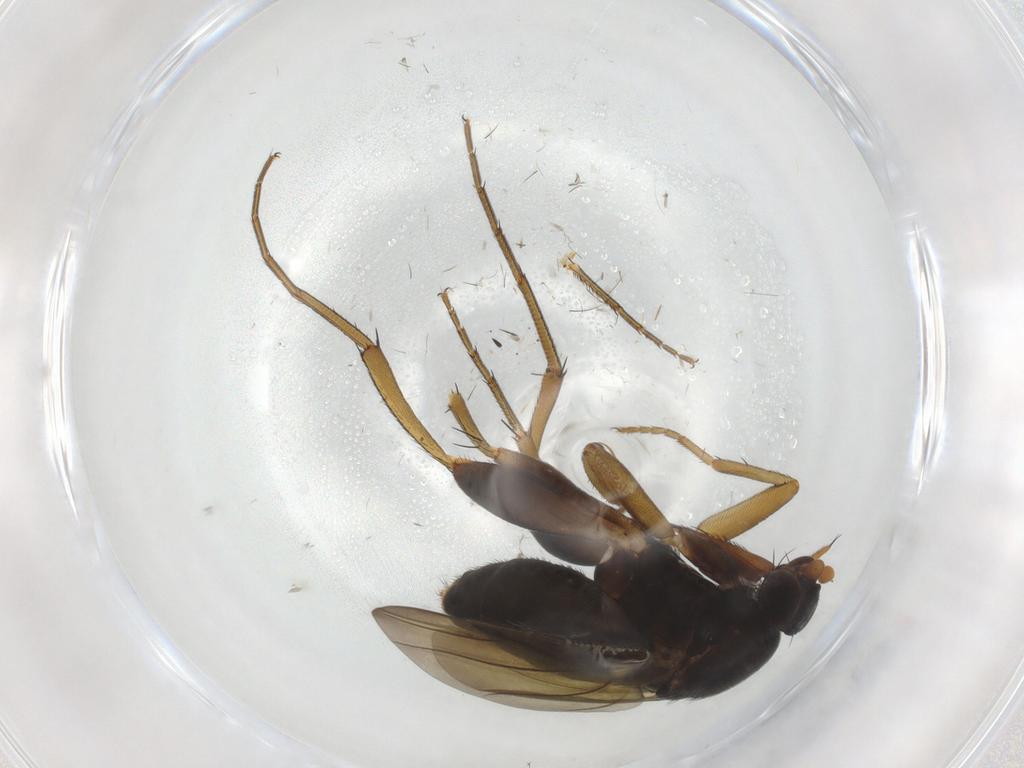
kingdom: Animalia
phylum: Arthropoda
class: Insecta
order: Diptera
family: Phoridae
